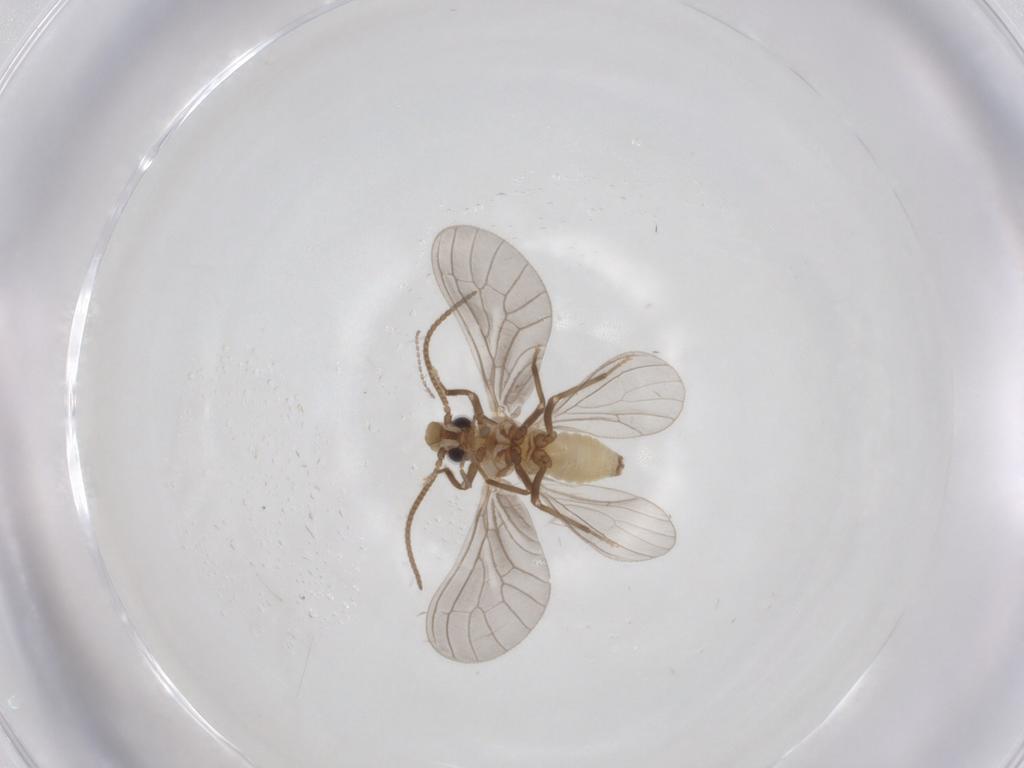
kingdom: Animalia
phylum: Arthropoda
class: Insecta
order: Neuroptera
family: Coniopterygidae
